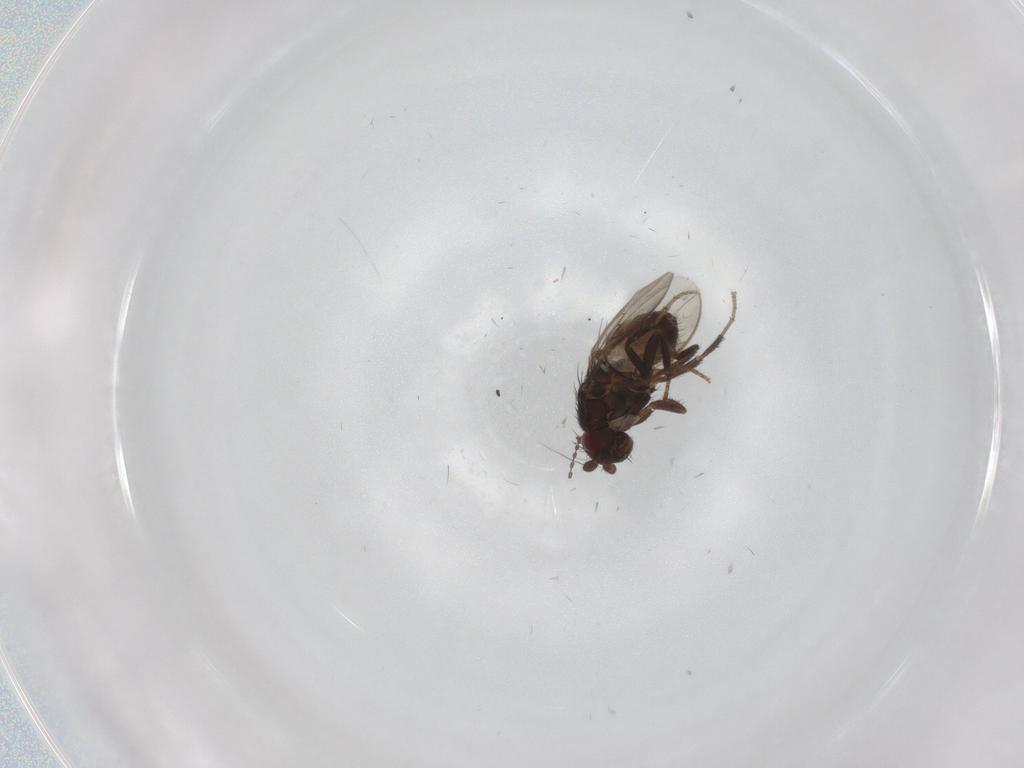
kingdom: Animalia
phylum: Arthropoda
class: Insecta
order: Diptera
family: Sphaeroceridae
